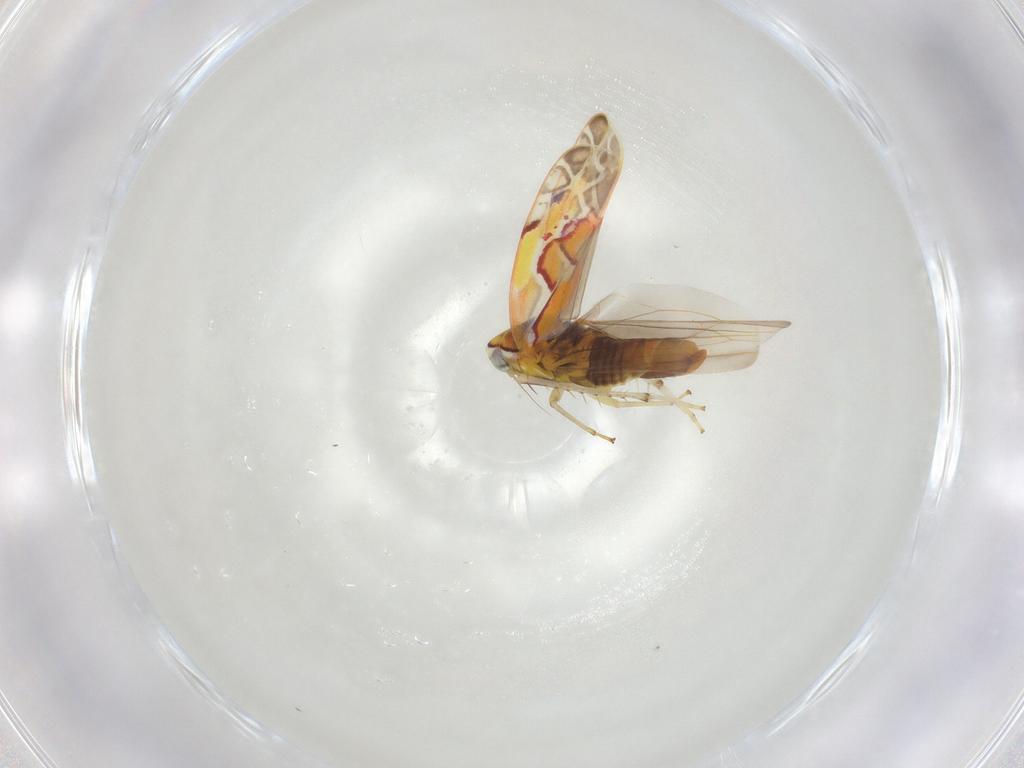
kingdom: Animalia
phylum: Arthropoda
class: Insecta
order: Hemiptera
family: Cicadellidae
